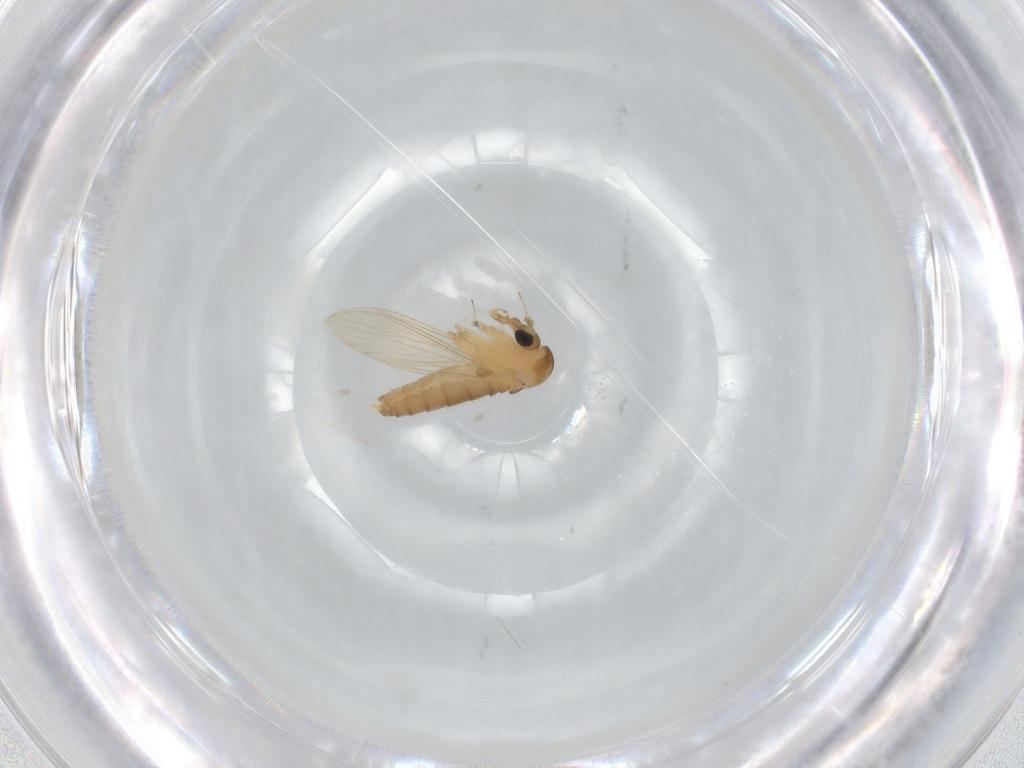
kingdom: Animalia
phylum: Arthropoda
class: Insecta
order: Diptera
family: Psychodidae
